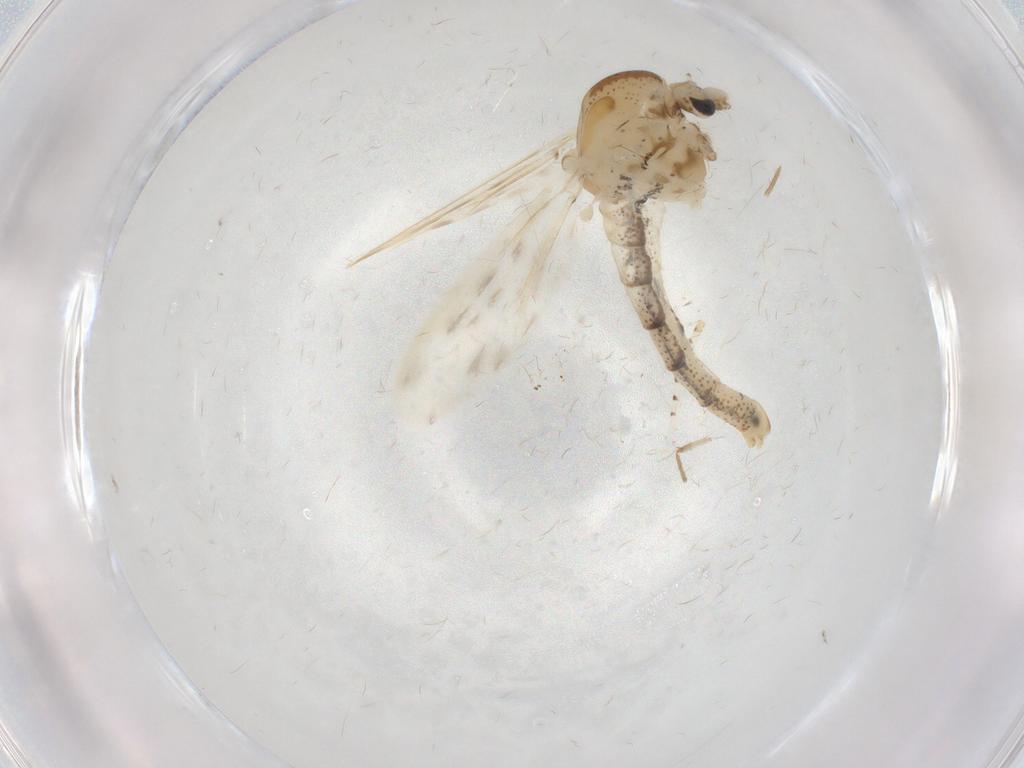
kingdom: Animalia
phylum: Arthropoda
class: Insecta
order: Diptera
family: Chaoboridae
